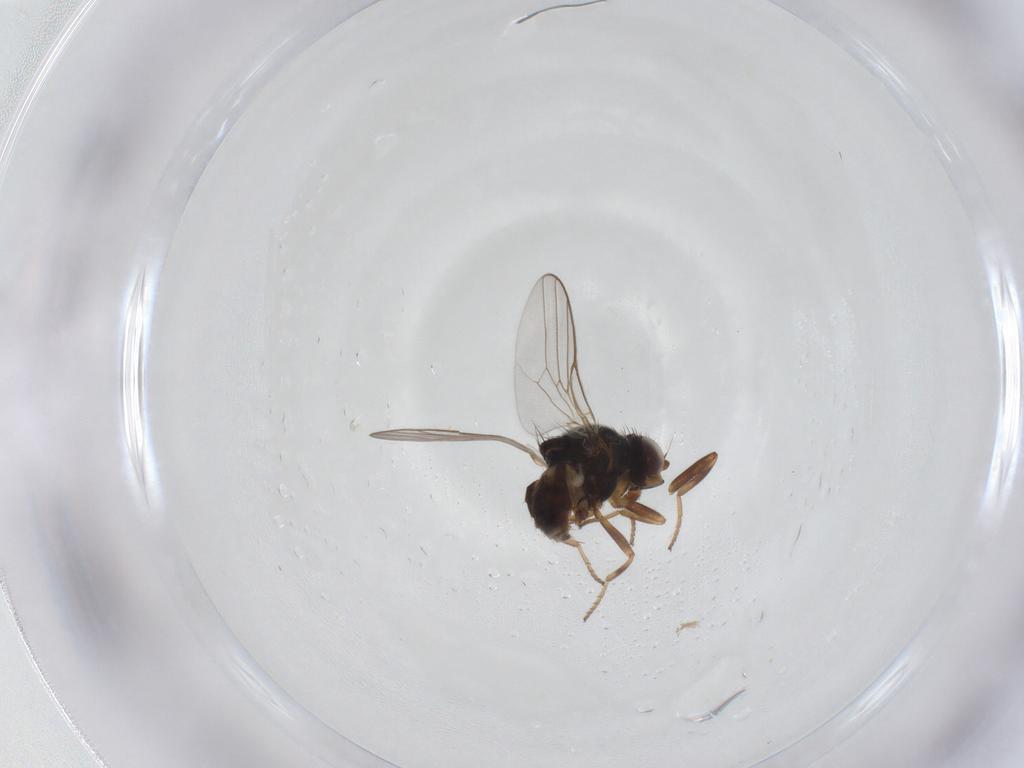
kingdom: Animalia
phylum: Arthropoda
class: Insecta
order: Diptera
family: Chloropidae
